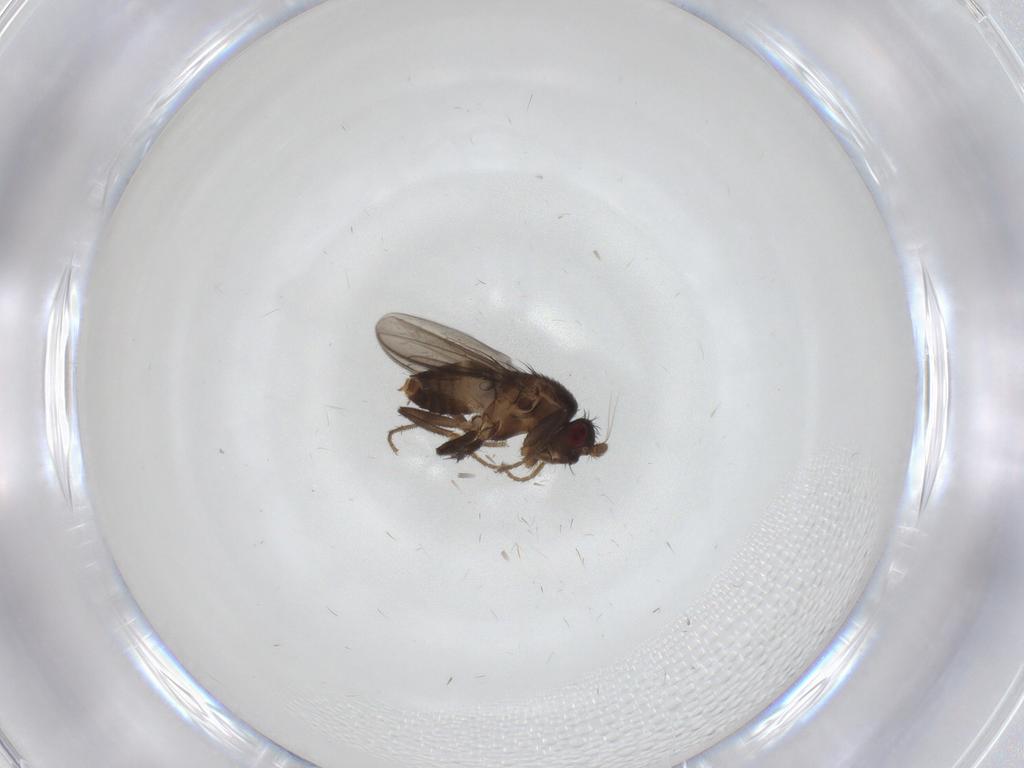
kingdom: Animalia
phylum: Arthropoda
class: Insecta
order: Diptera
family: Sphaeroceridae
